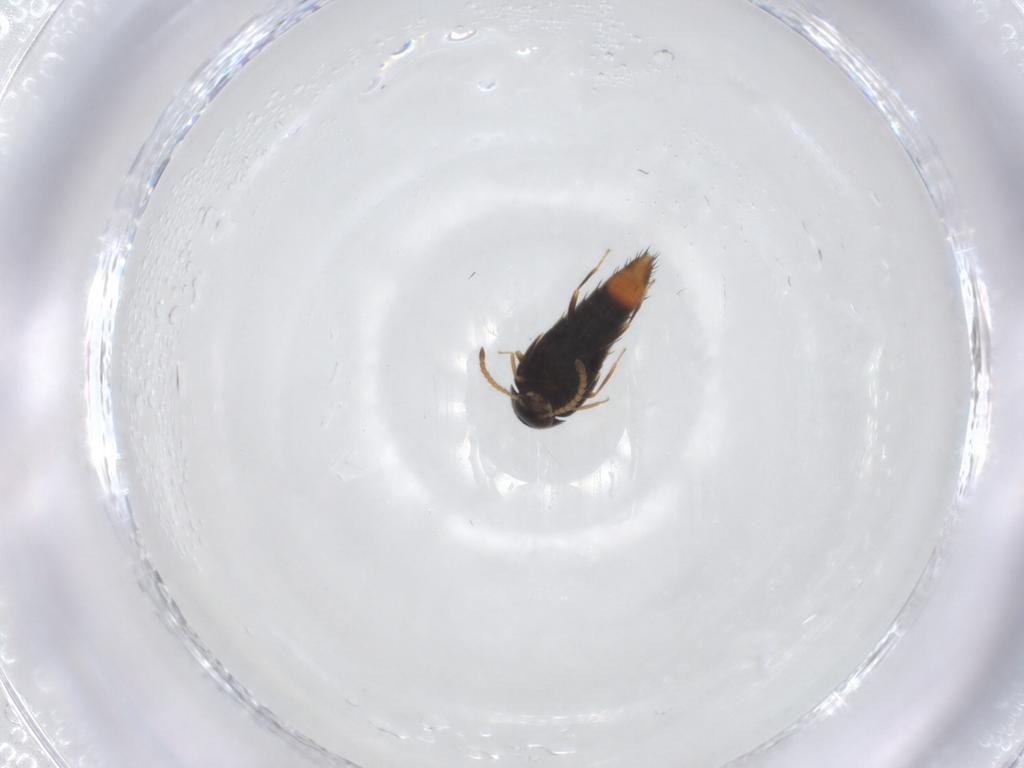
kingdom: Animalia
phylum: Arthropoda
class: Insecta
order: Coleoptera
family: Staphylinidae
